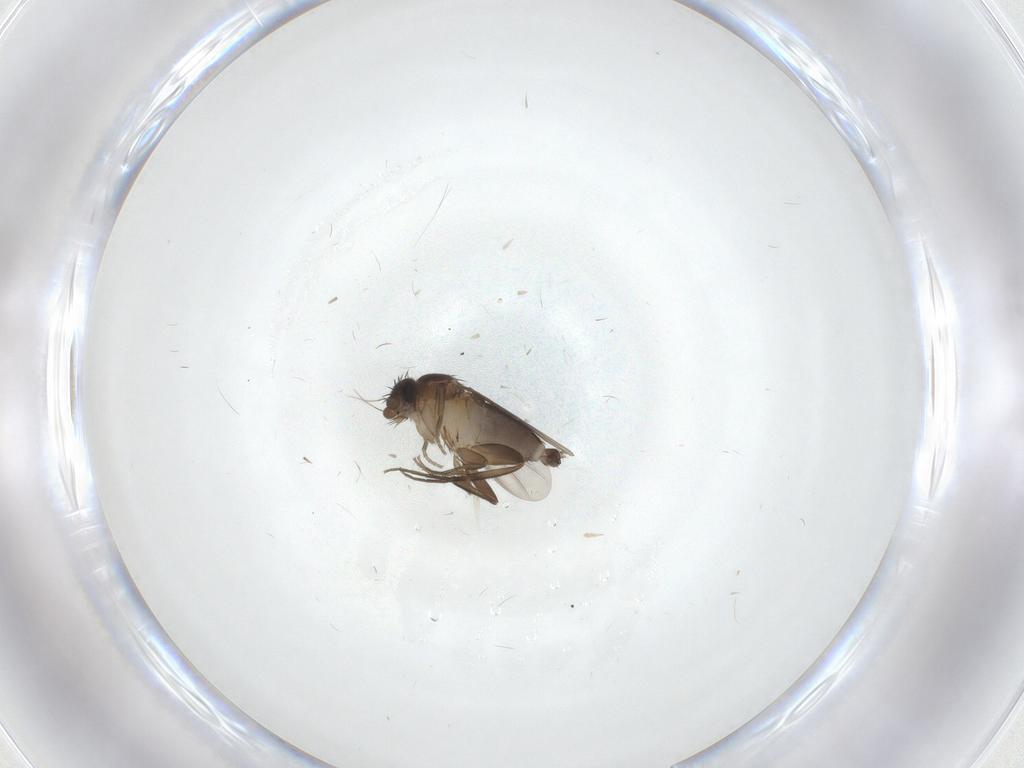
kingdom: Animalia
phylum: Arthropoda
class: Insecta
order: Diptera
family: Phoridae
